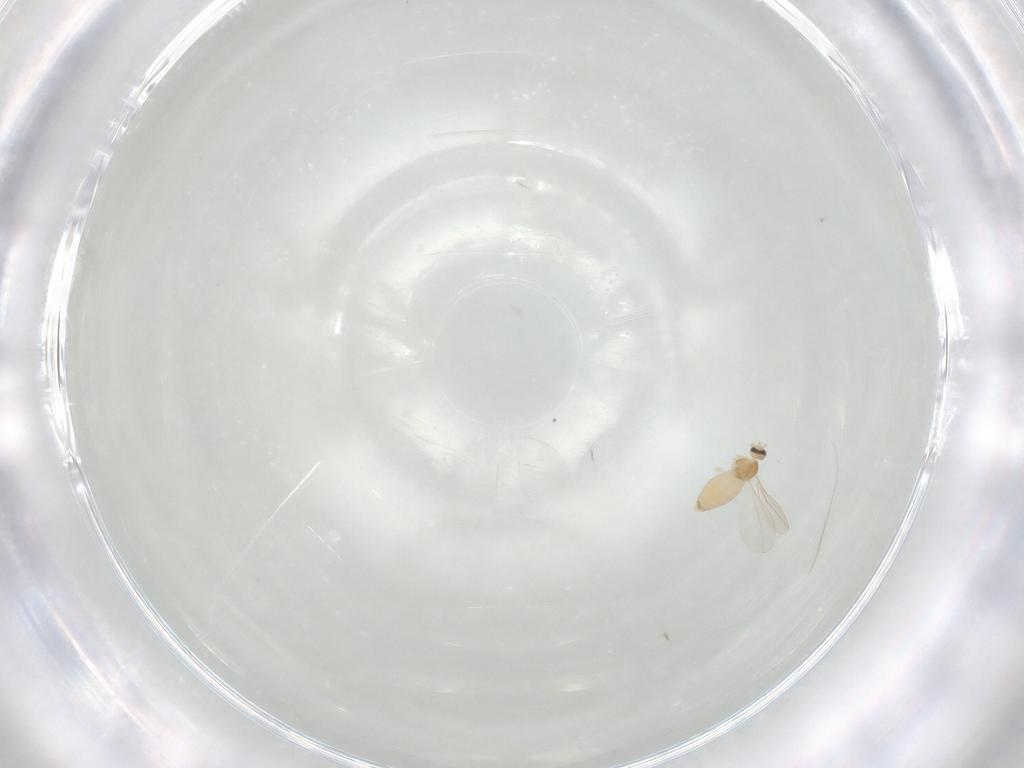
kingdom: Animalia
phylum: Arthropoda
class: Insecta
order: Diptera
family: Cecidomyiidae
